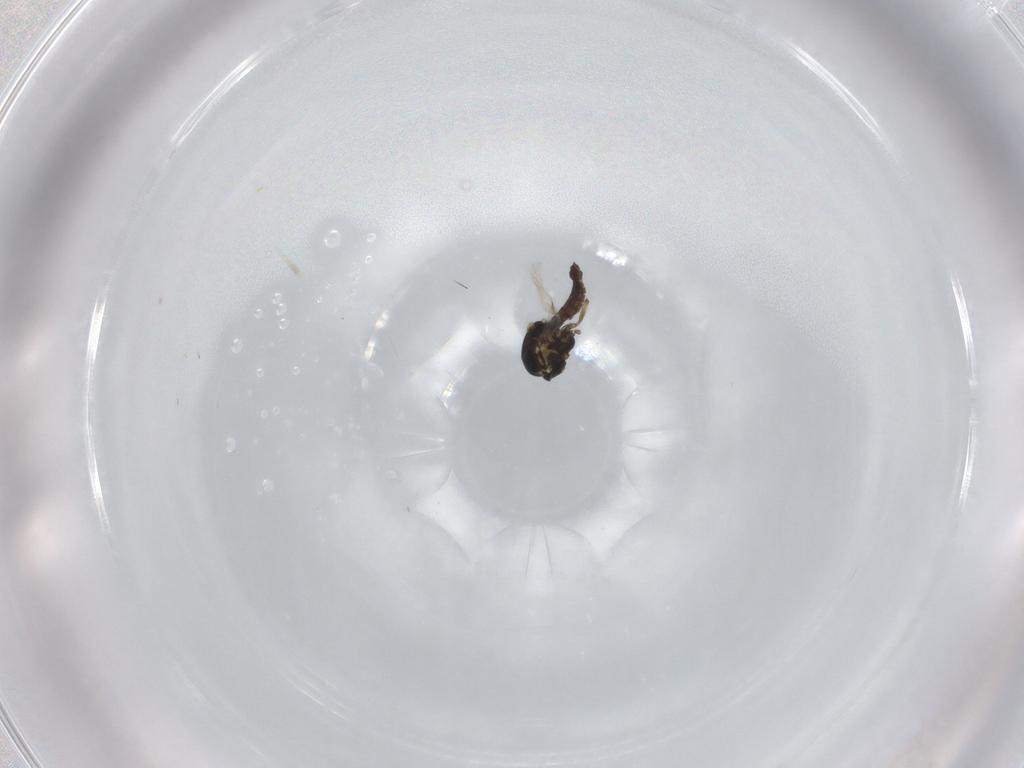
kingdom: Animalia
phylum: Arthropoda
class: Insecta
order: Diptera
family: Ceratopogonidae
